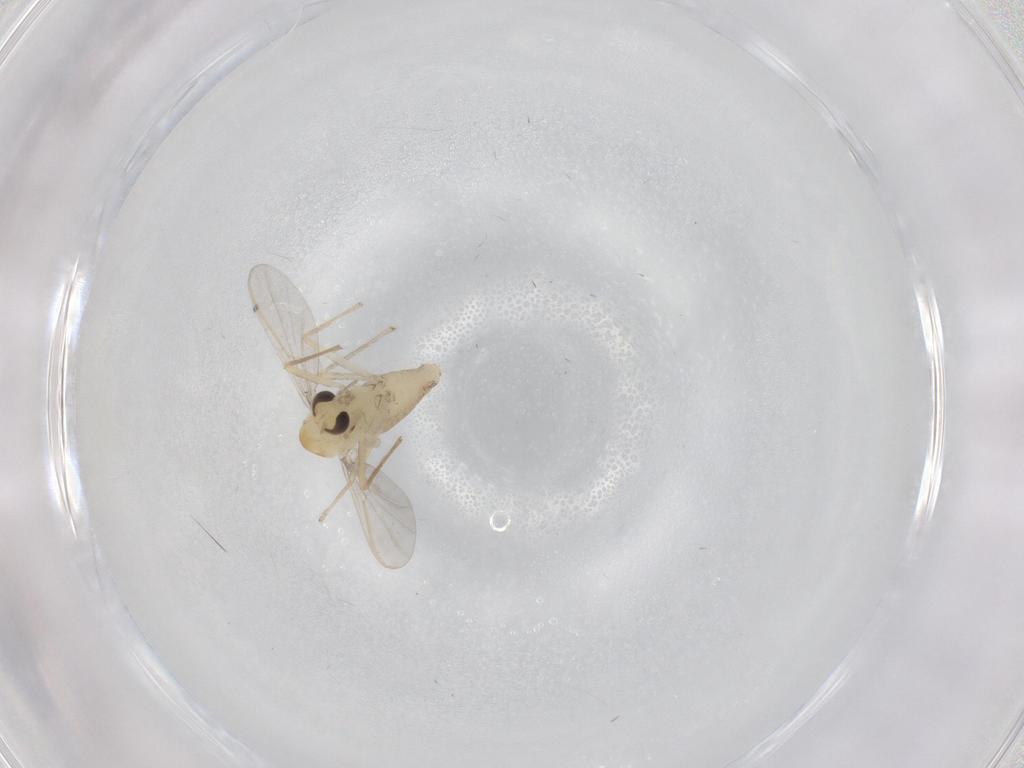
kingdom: Animalia
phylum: Arthropoda
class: Insecta
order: Diptera
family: Chironomidae
